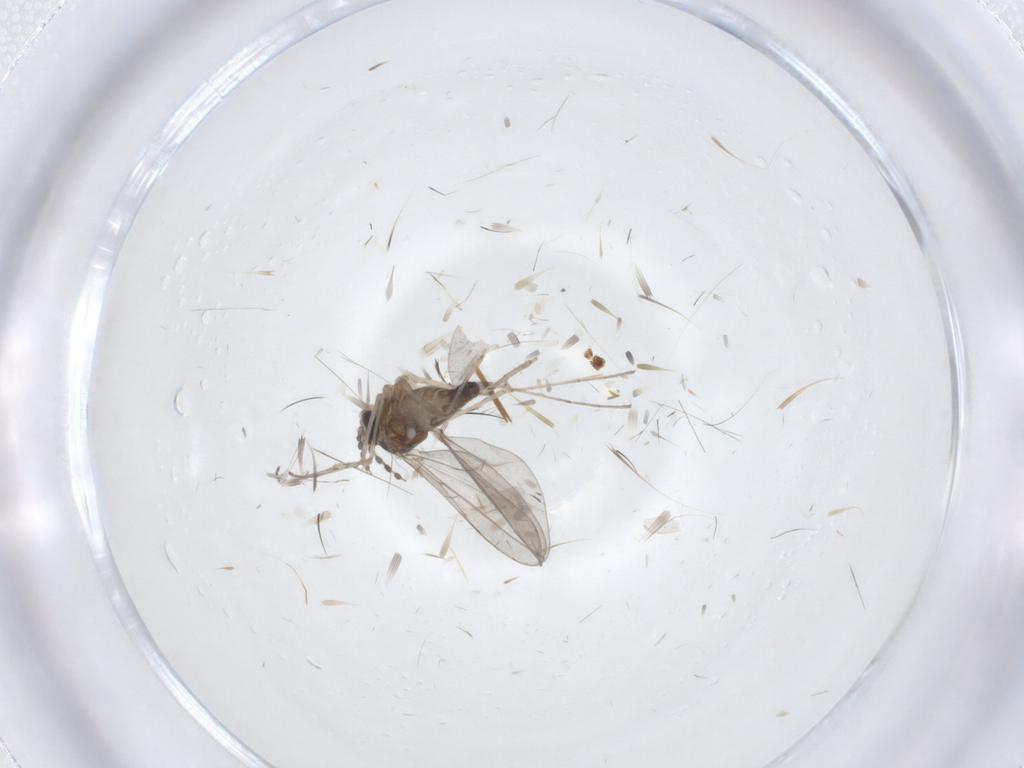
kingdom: Animalia
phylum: Arthropoda
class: Insecta
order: Diptera
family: Cecidomyiidae
